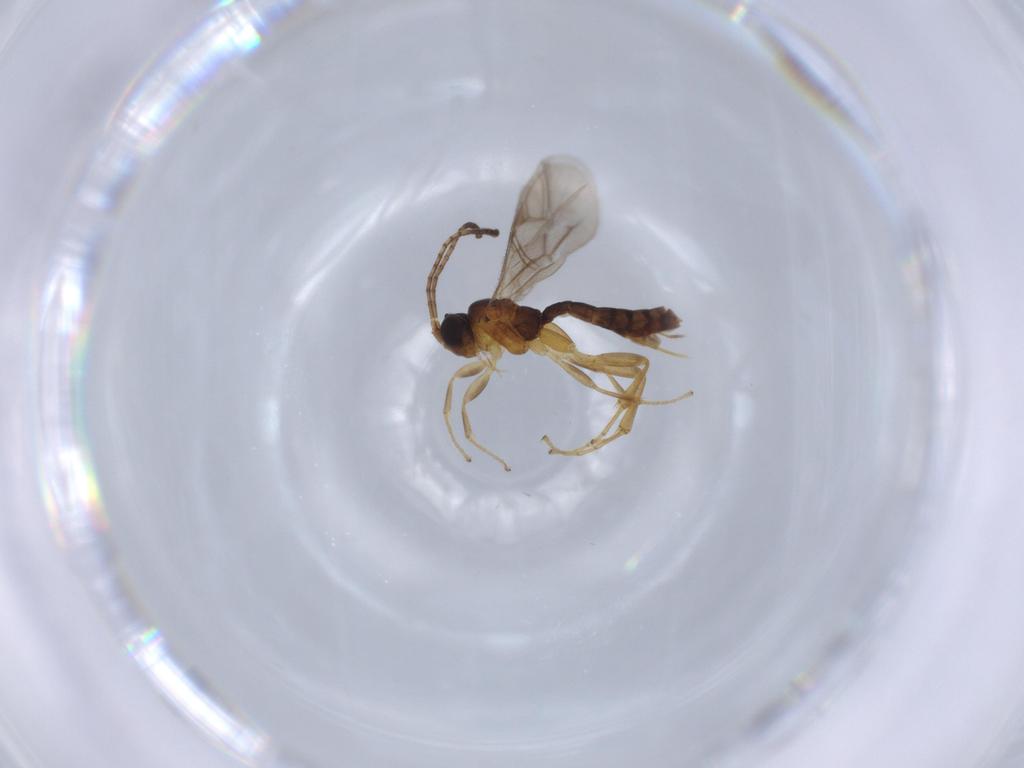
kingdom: Animalia
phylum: Arthropoda
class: Insecta
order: Hymenoptera
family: Ichneumonidae
